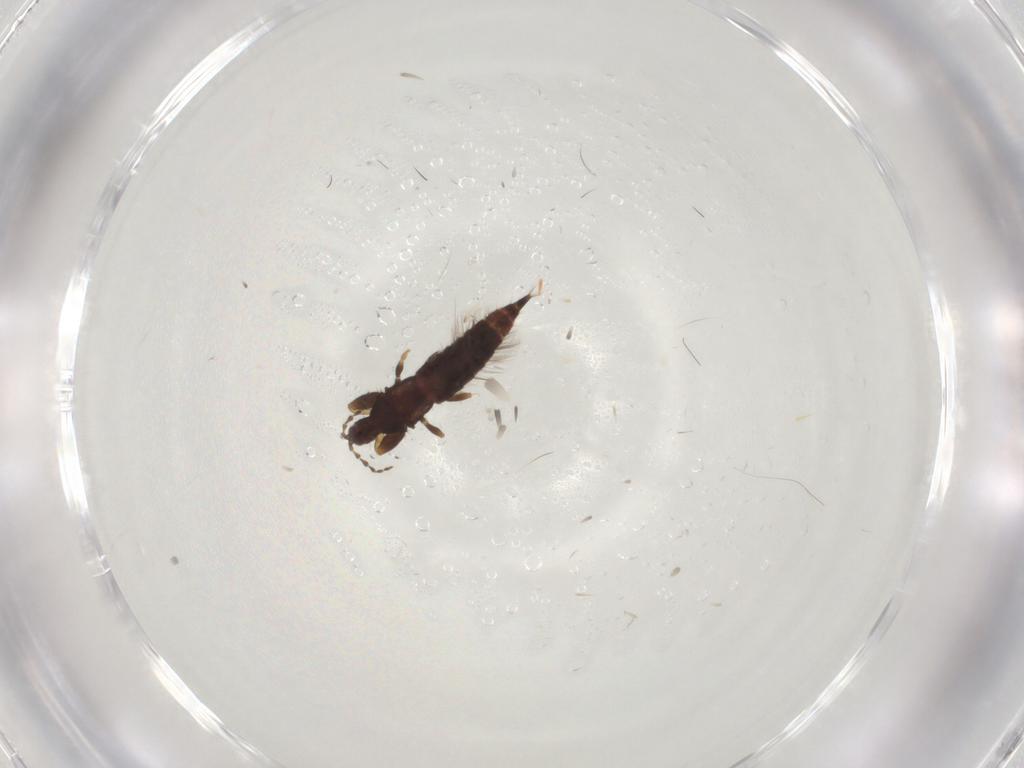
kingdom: Animalia
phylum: Arthropoda
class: Insecta
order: Thysanoptera
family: Phlaeothripidae
